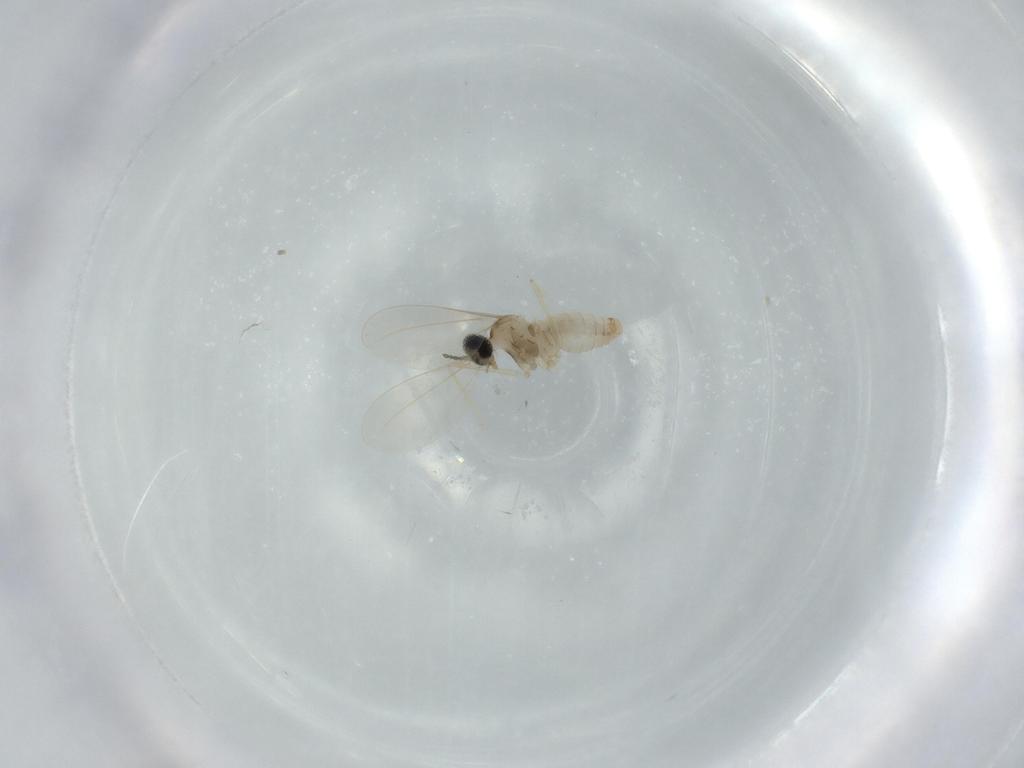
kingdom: Animalia
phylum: Arthropoda
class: Insecta
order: Diptera
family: Cecidomyiidae
